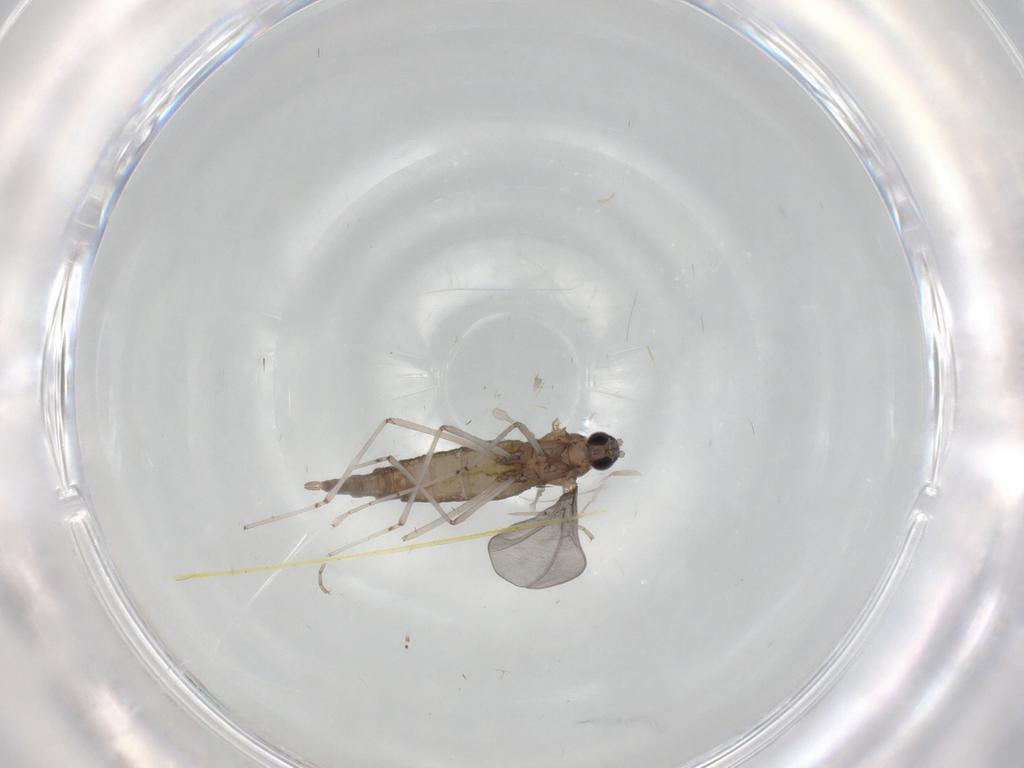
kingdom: Animalia
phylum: Arthropoda
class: Insecta
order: Diptera
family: Cecidomyiidae
